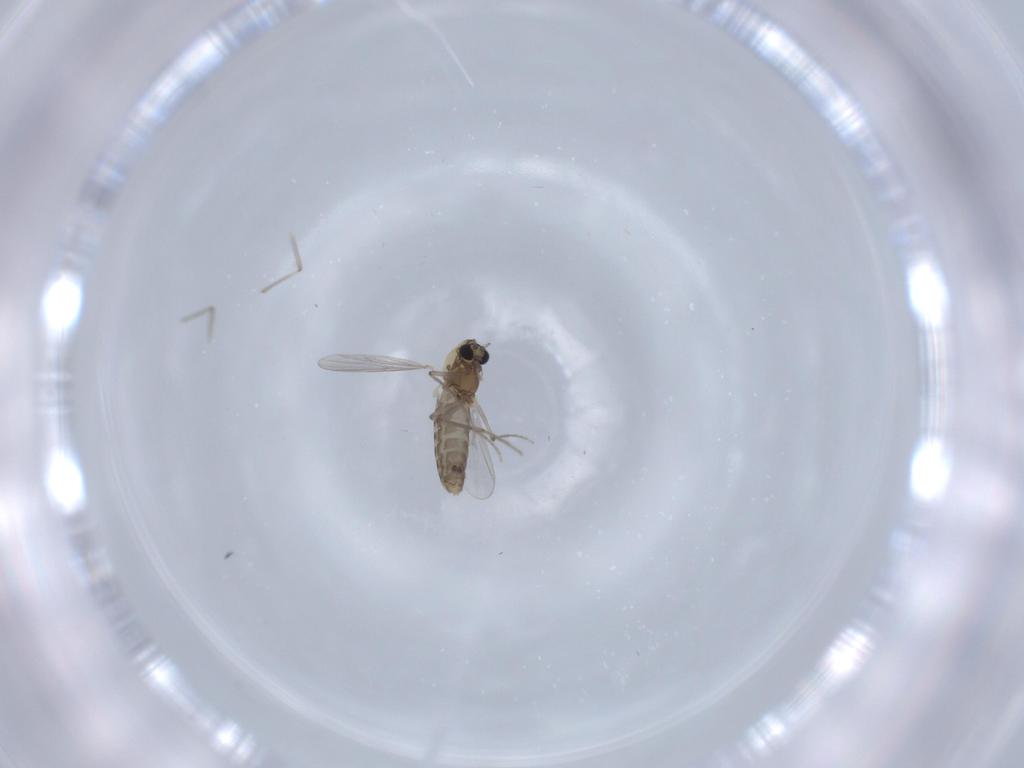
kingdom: Animalia
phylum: Arthropoda
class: Insecta
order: Diptera
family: Chironomidae
